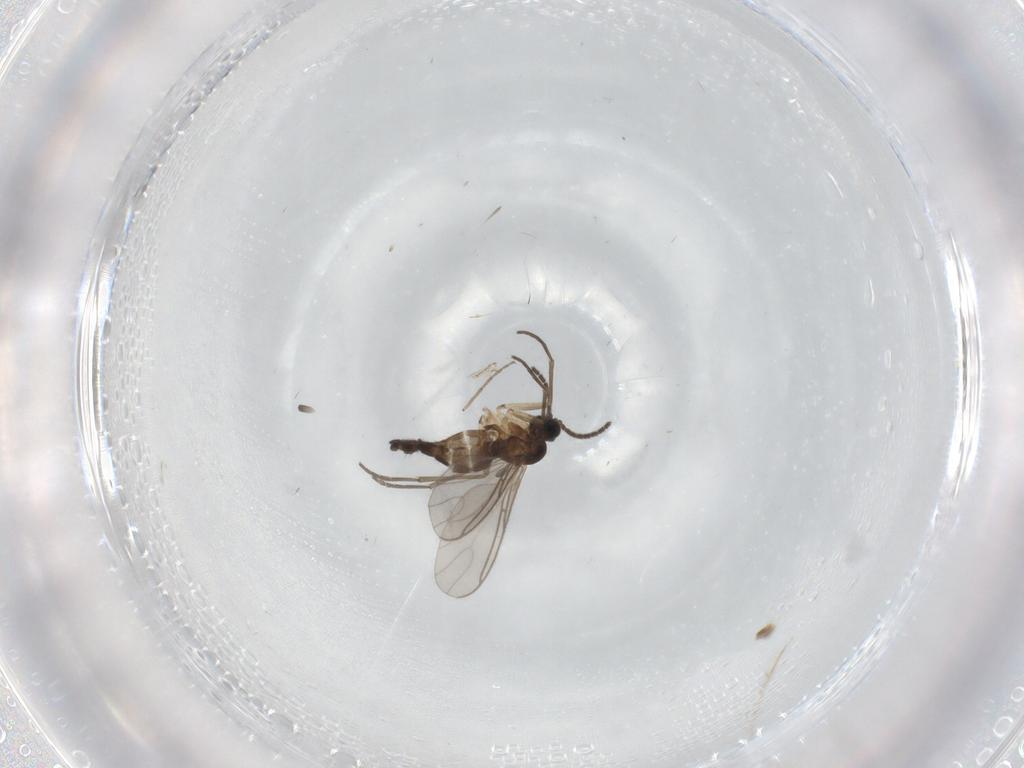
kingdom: Animalia
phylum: Arthropoda
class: Insecta
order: Diptera
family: Sciaridae
